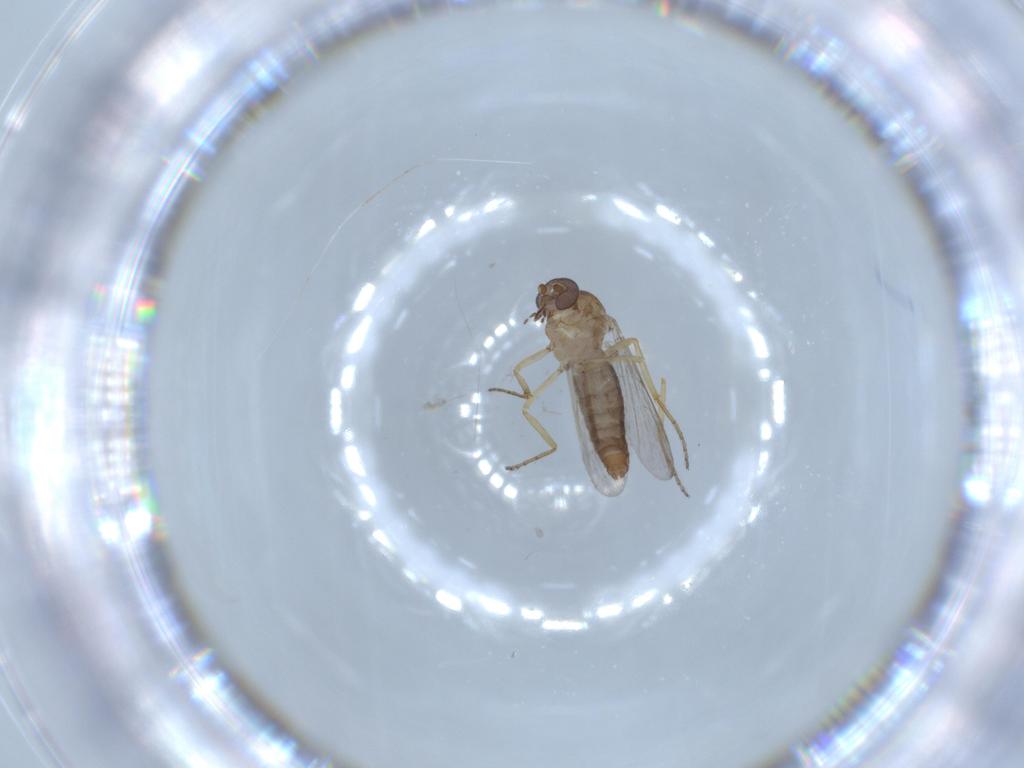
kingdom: Animalia
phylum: Arthropoda
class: Insecta
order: Diptera
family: Ceratopogonidae
